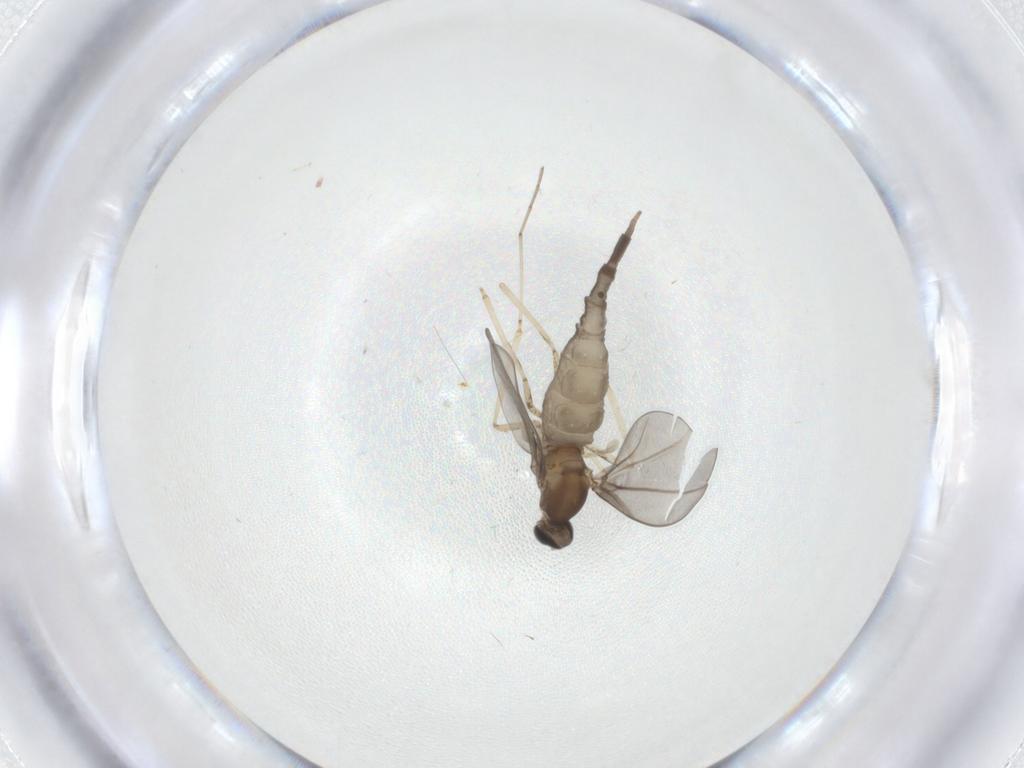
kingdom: Animalia
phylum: Arthropoda
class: Insecta
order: Diptera
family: Cecidomyiidae
